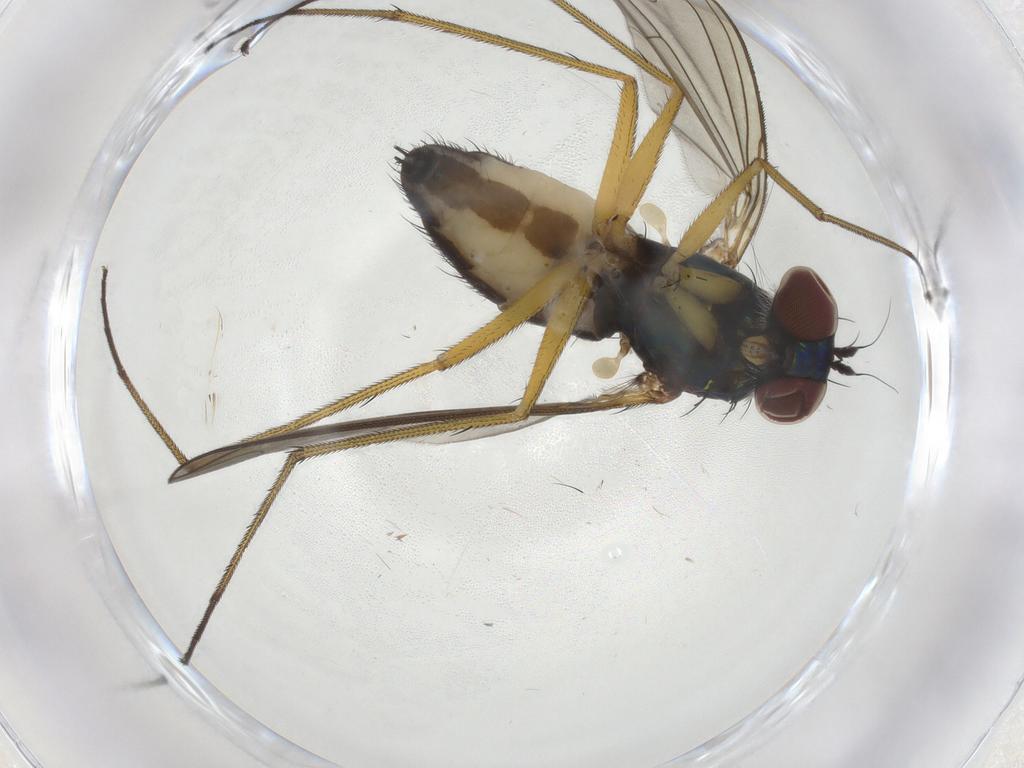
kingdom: Animalia
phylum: Arthropoda
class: Insecta
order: Diptera
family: Dolichopodidae
